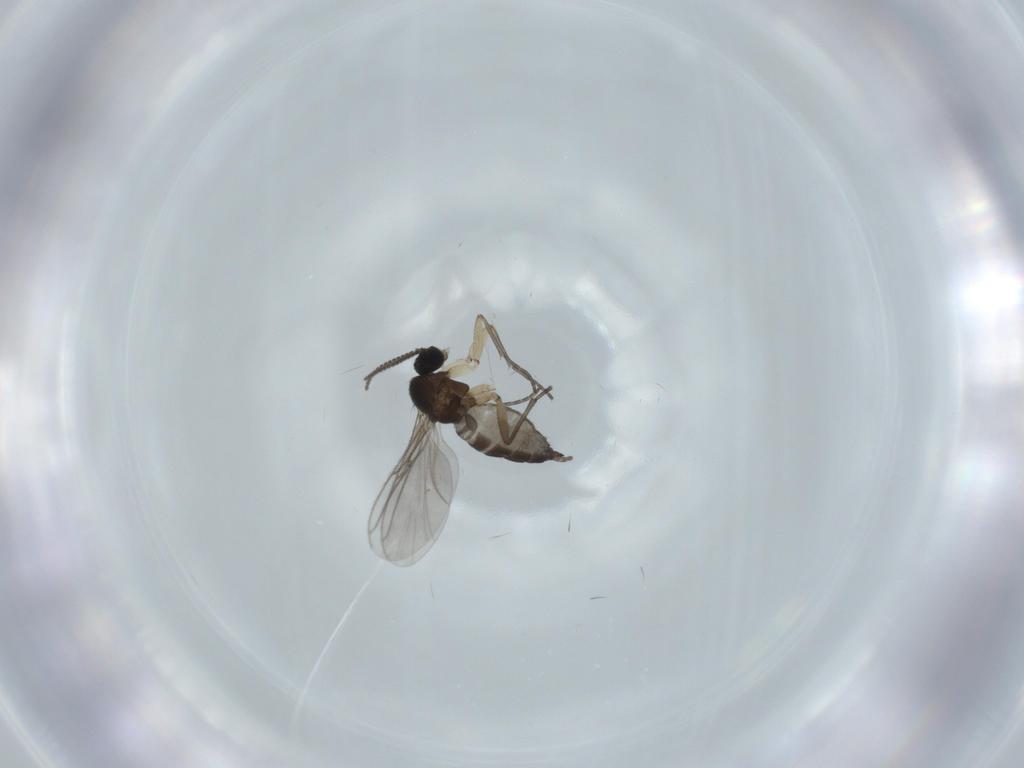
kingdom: Animalia
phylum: Arthropoda
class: Insecta
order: Diptera
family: Sciaridae
